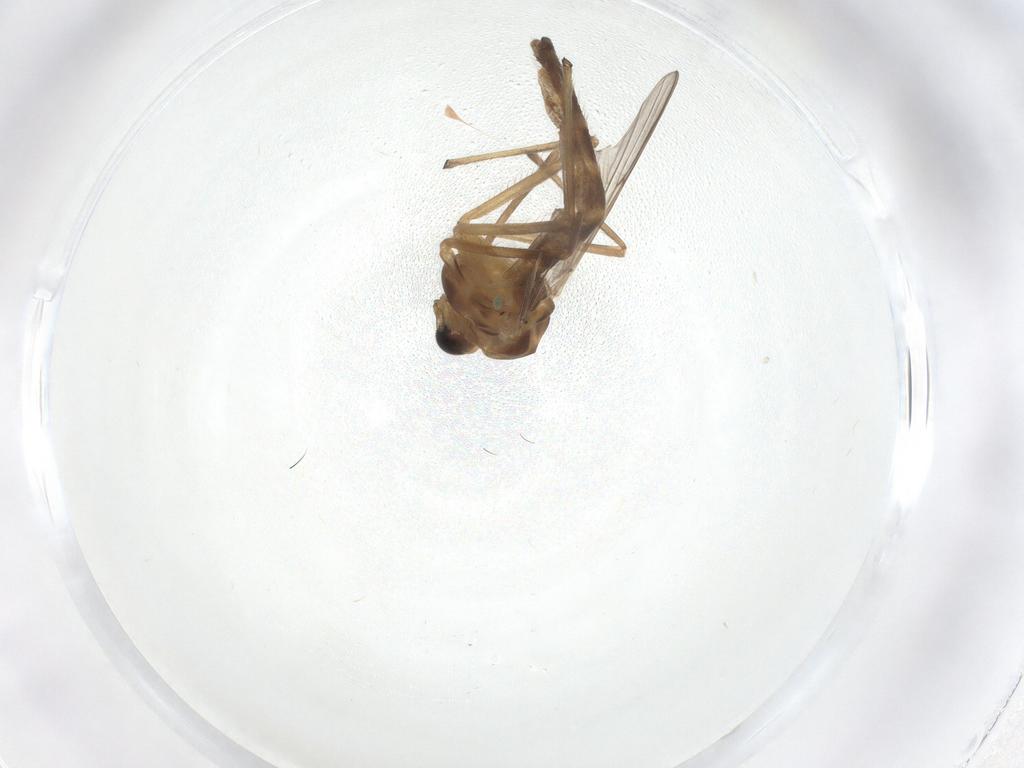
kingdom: Animalia
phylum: Arthropoda
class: Insecta
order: Diptera
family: Chironomidae
